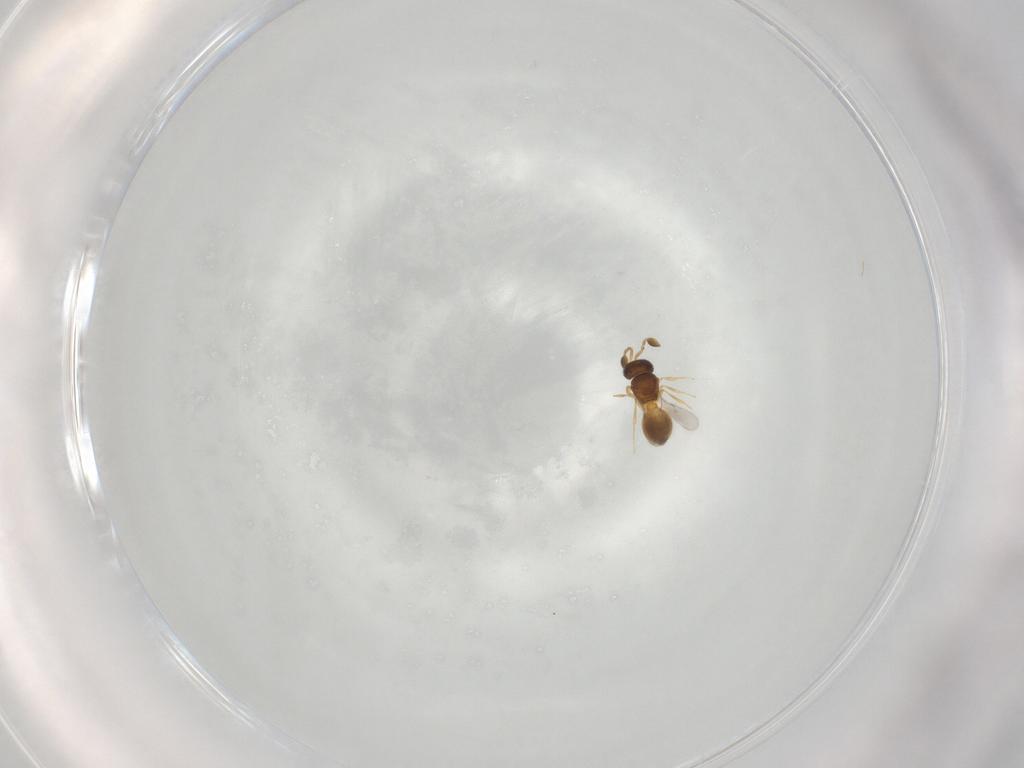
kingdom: Animalia
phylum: Arthropoda
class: Insecta
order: Hymenoptera
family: Scelionidae
